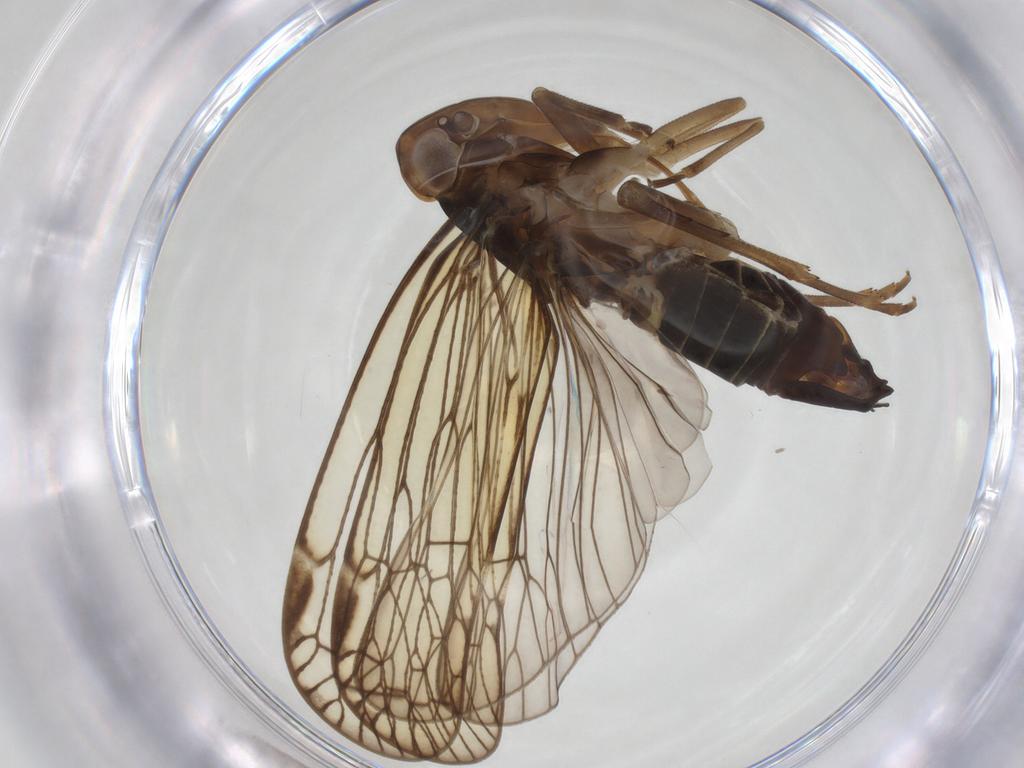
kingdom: Animalia
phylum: Arthropoda
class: Insecta
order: Hemiptera
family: Cixiidae
